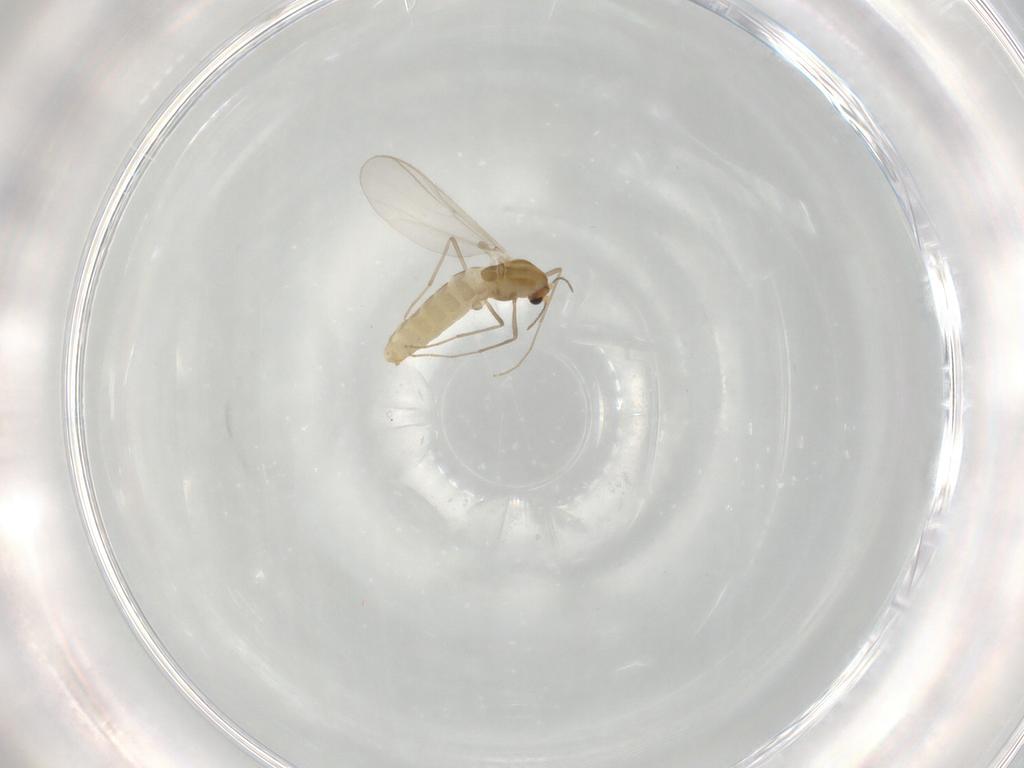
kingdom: Animalia
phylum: Arthropoda
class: Insecta
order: Diptera
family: Chironomidae
